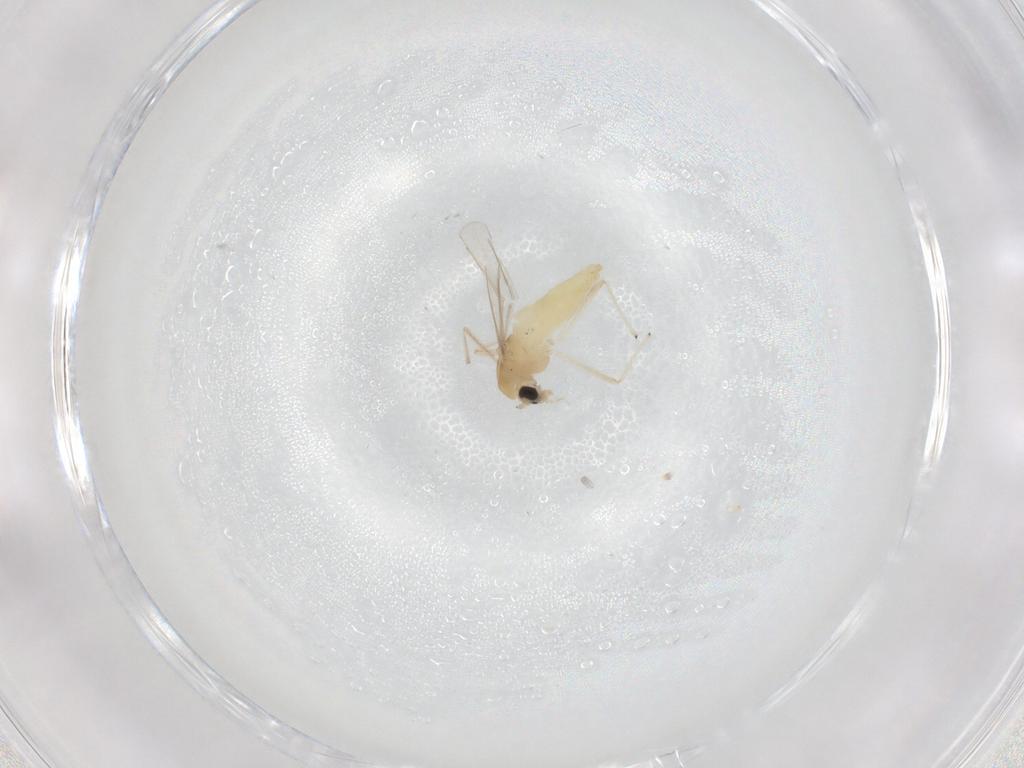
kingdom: Animalia
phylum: Arthropoda
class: Insecta
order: Diptera
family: Chironomidae
